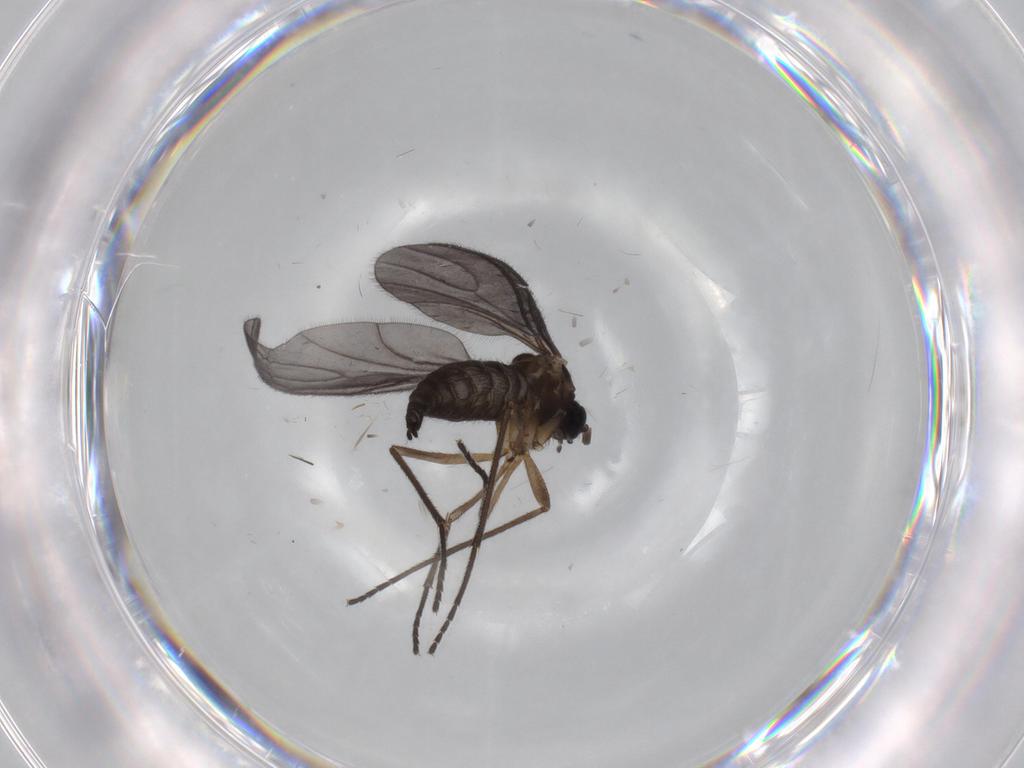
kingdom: Animalia
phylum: Arthropoda
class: Insecta
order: Diptera
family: Sciaridae
